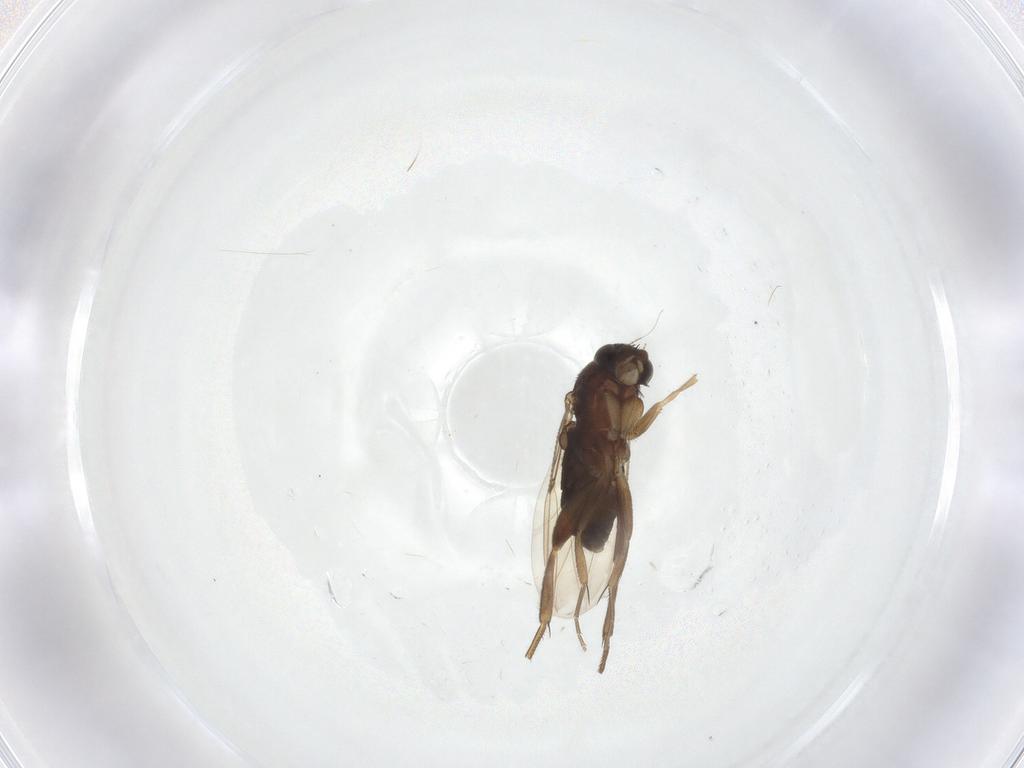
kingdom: Animalia
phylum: Arthropoda
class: Insecta
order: Diptera
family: Phoridae
